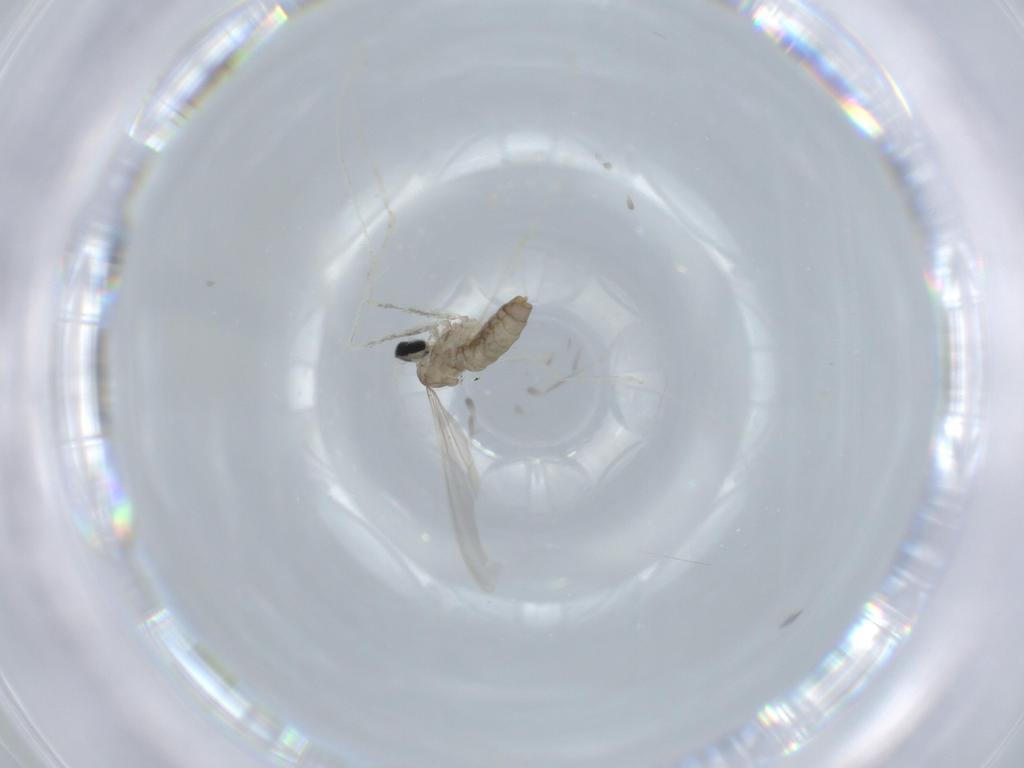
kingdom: Animalia
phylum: Arthropoda
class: Insecta
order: Diptera
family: Cecidomyiidae
